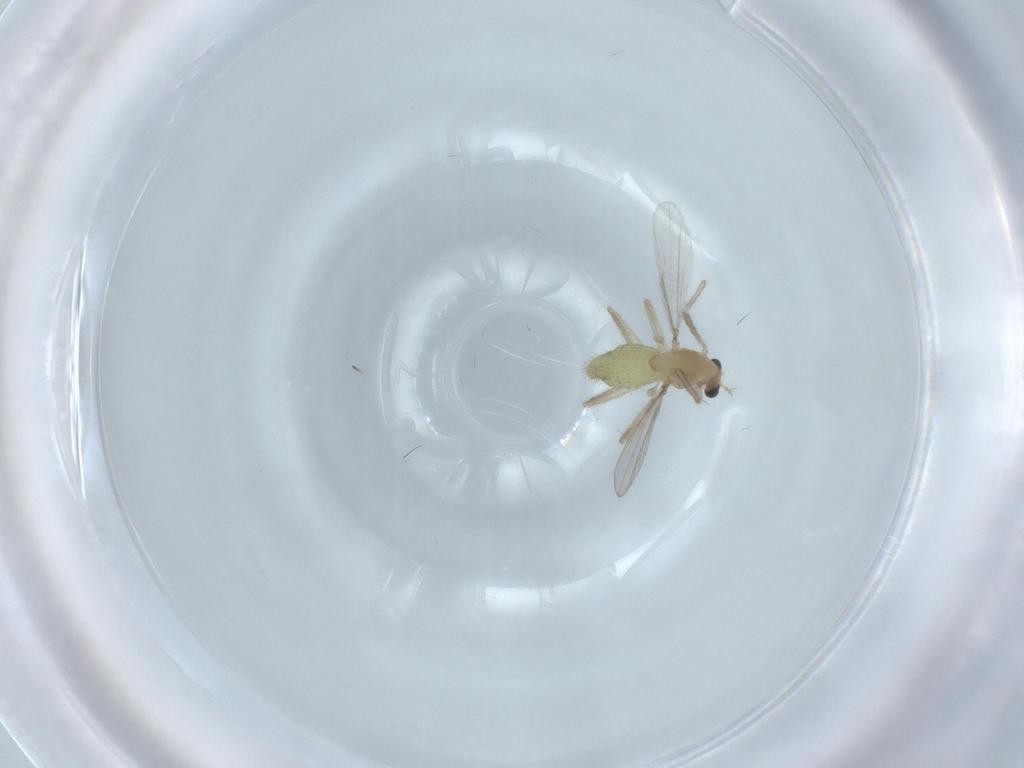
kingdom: Animalia
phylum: Arthropoda
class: Insecta
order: Diptera
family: Chironomidae
